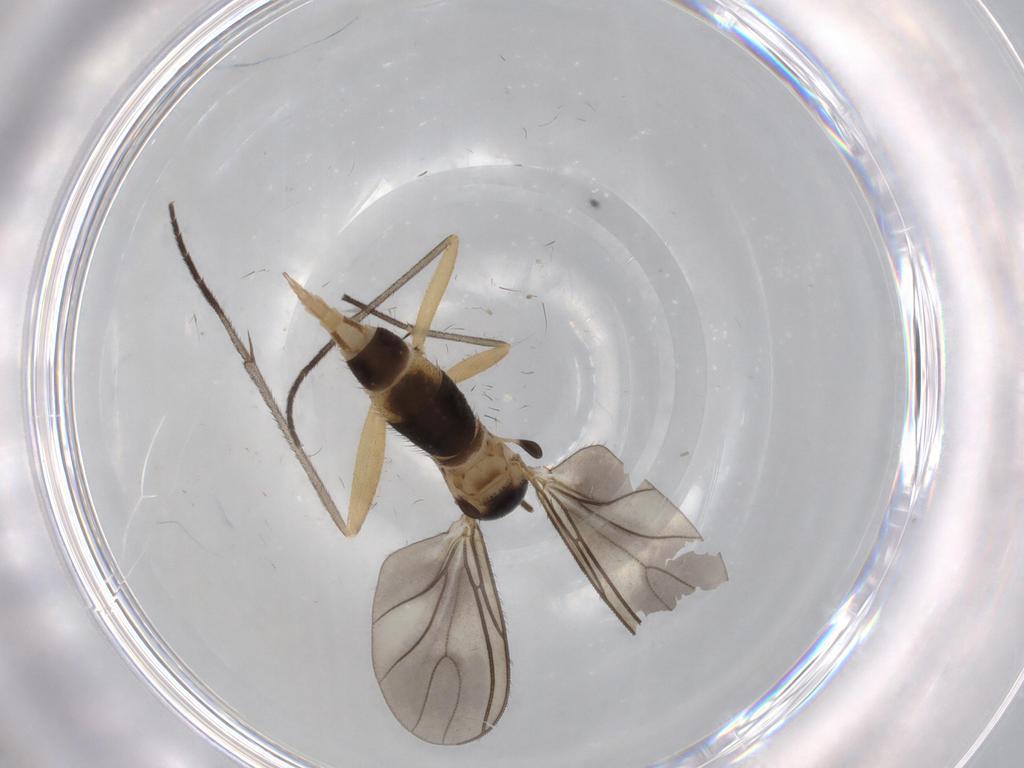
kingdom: Animalia
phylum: Arthropoda
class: Insecta
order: Diptera
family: Sciaridae
